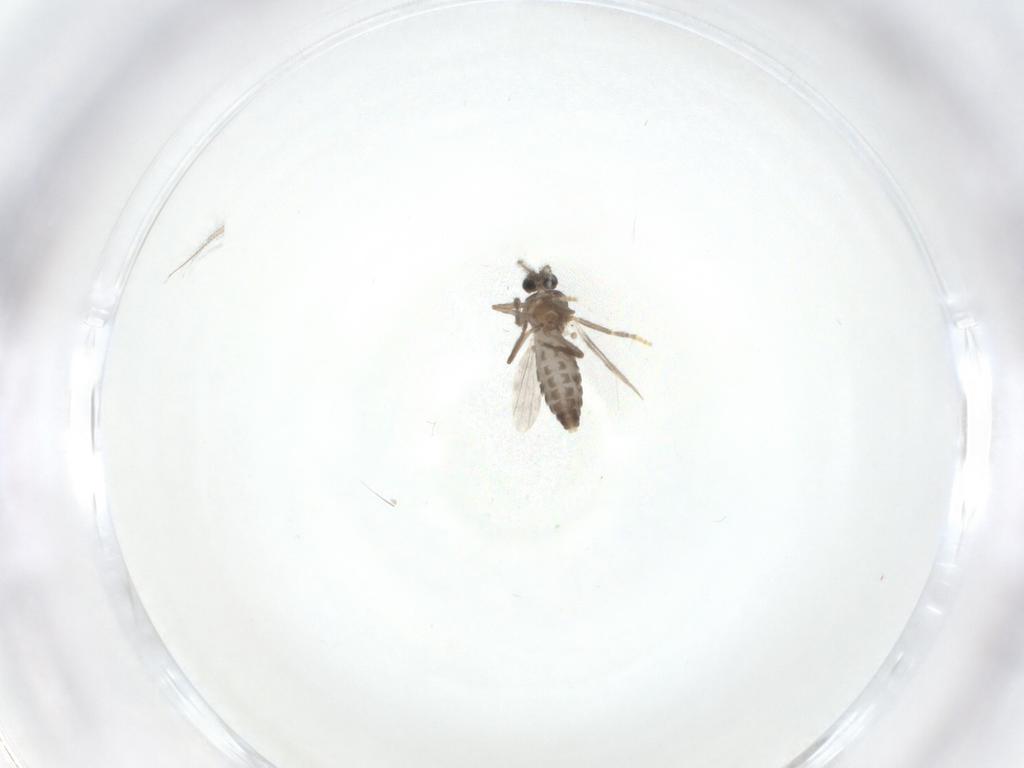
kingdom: Animalia
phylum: Arthropoda
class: Insecta
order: Diptera
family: Ceratopogonidae
